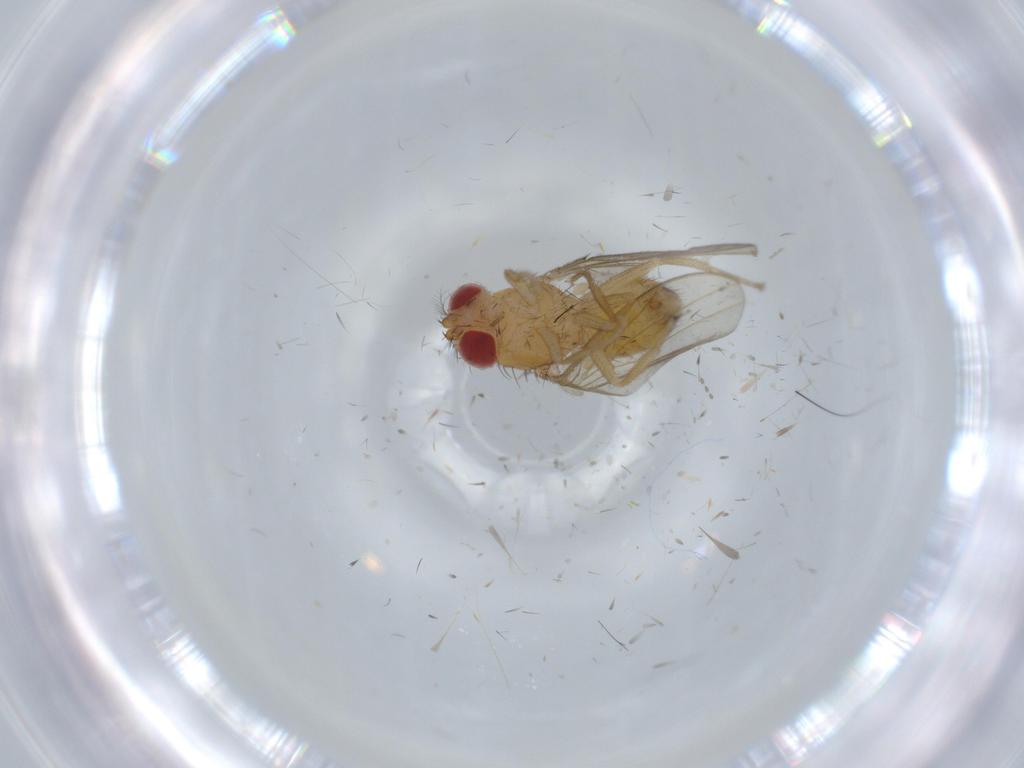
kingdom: Animalia
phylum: Arthropoda
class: Insecta
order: Diptera
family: Drosophilidae
